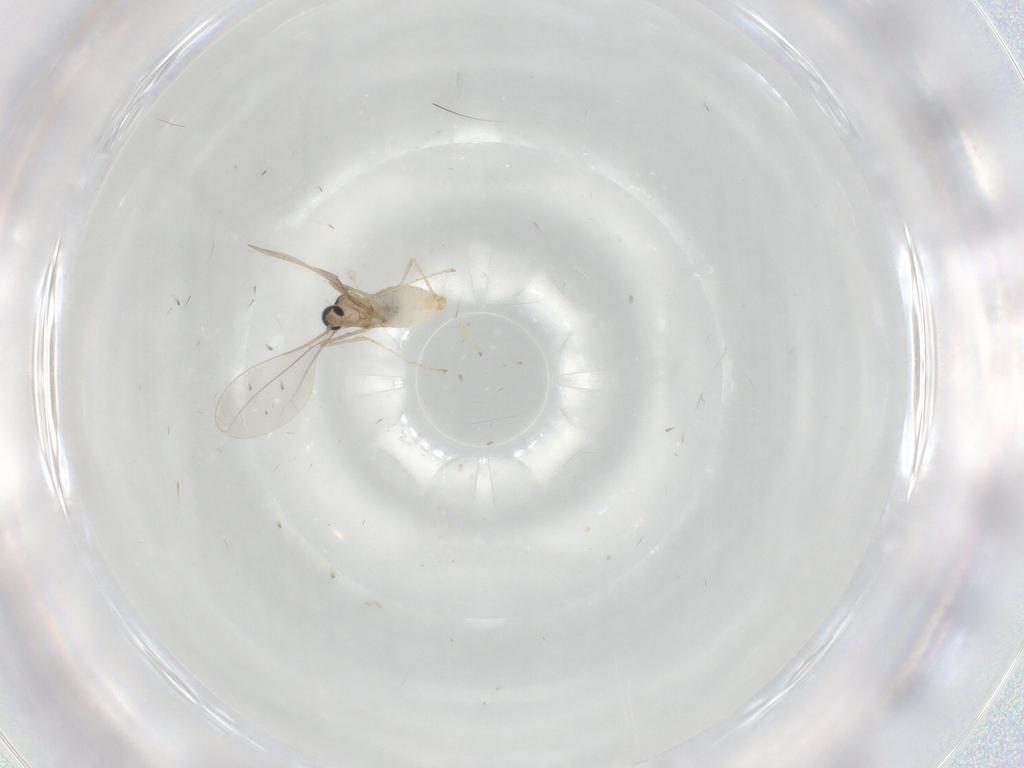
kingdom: Animalia
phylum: Arthropoda
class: Insecta
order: Diptera
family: Cecidomyiidae
